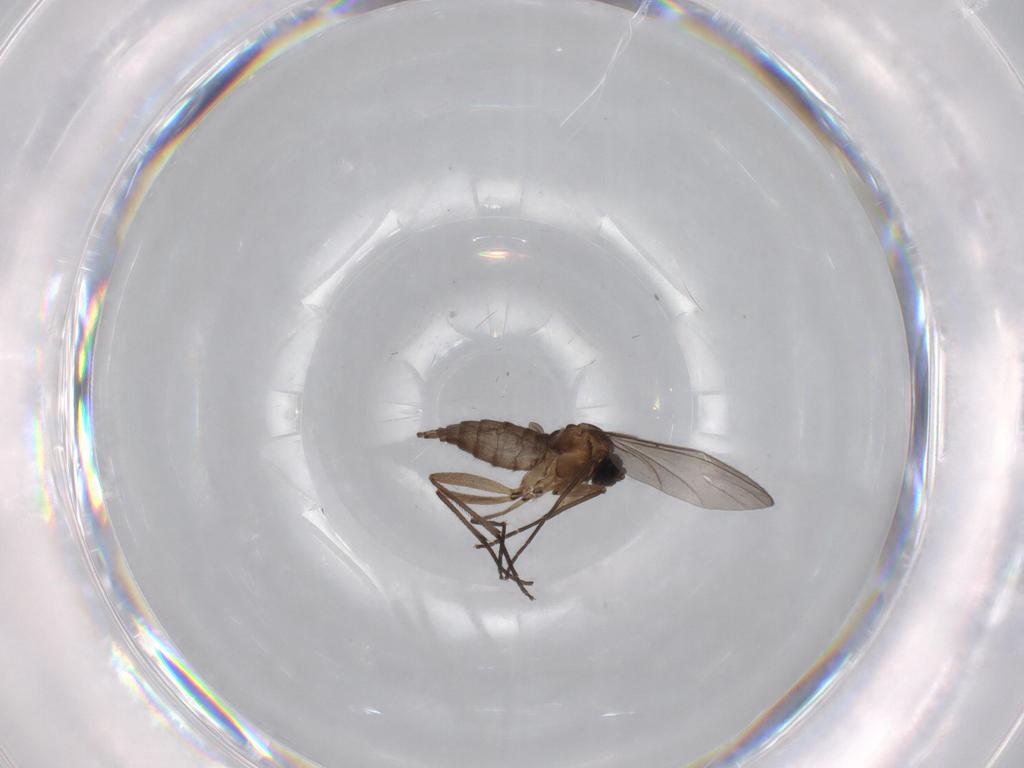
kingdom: Animalia
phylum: Arthropoda
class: Insecta
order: Diptera
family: Sciaridae
